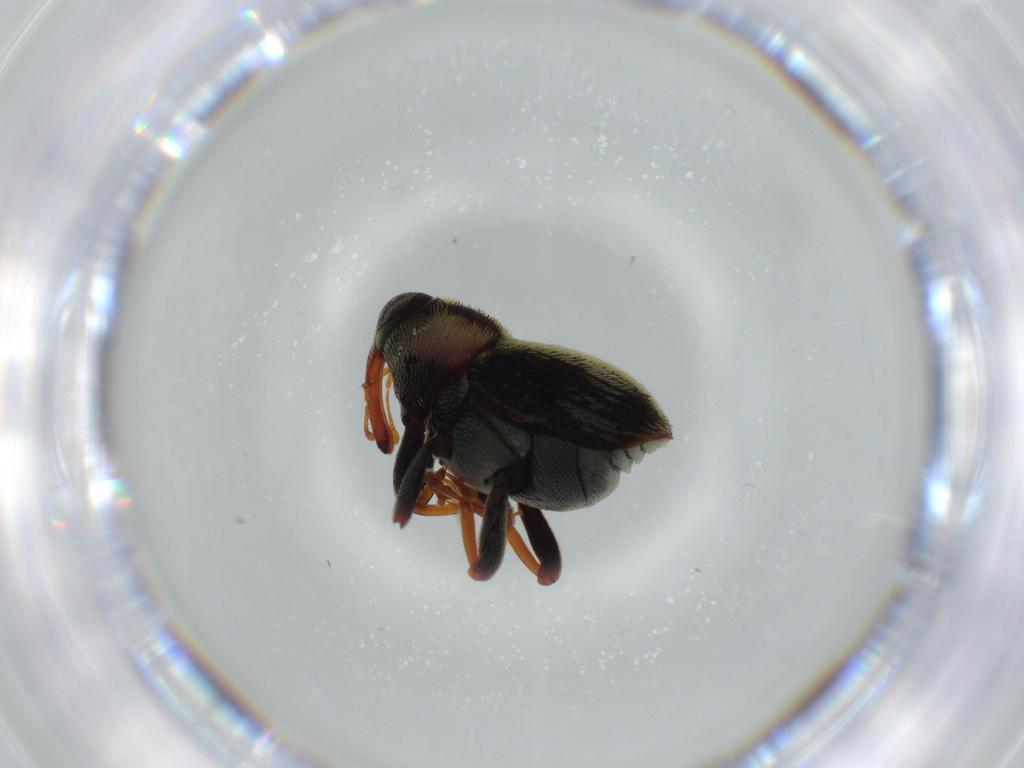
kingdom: Animalia
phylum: Arthropoda
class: Insecta
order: Coleoptera
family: Curculionidae
